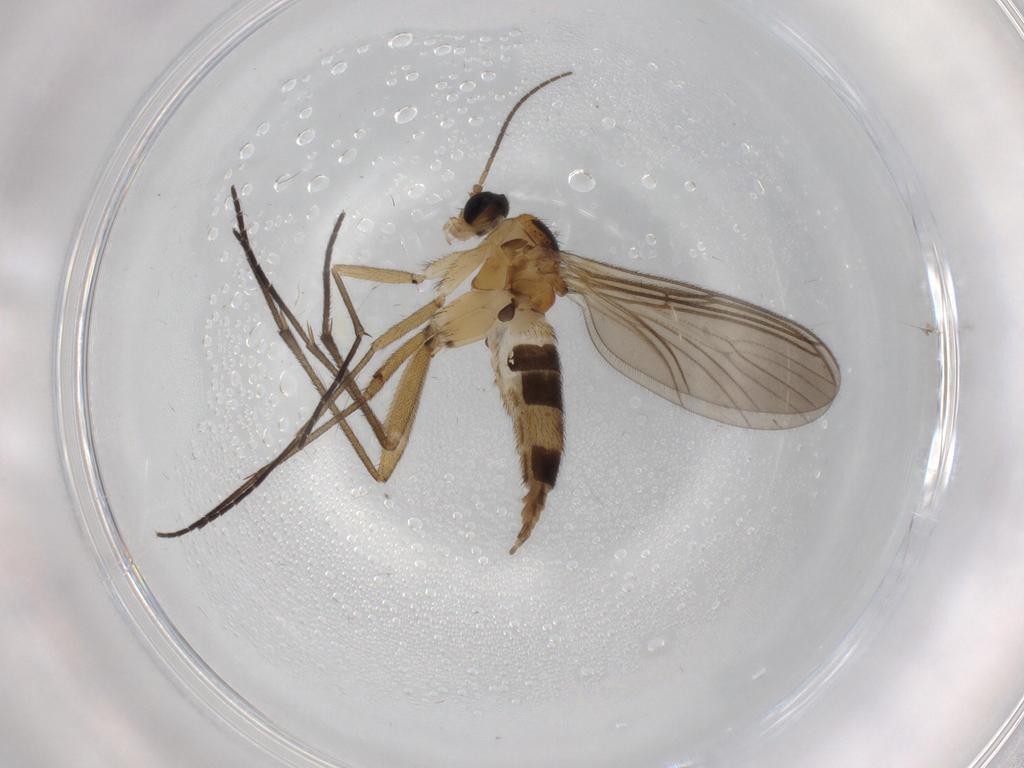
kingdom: Animalia
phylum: Arthropoda
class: Insecta
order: Diptera
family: Sciaridae
